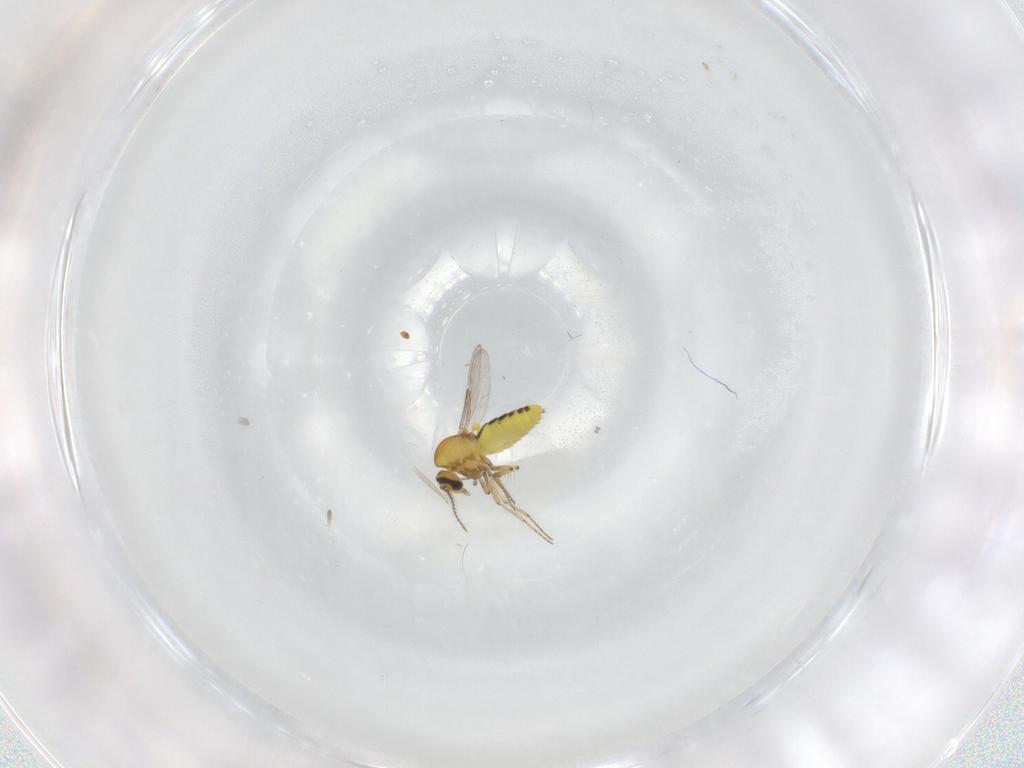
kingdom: Animalia
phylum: Arthropoda
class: Insecta
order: Diptera
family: Ceratopogonidae
